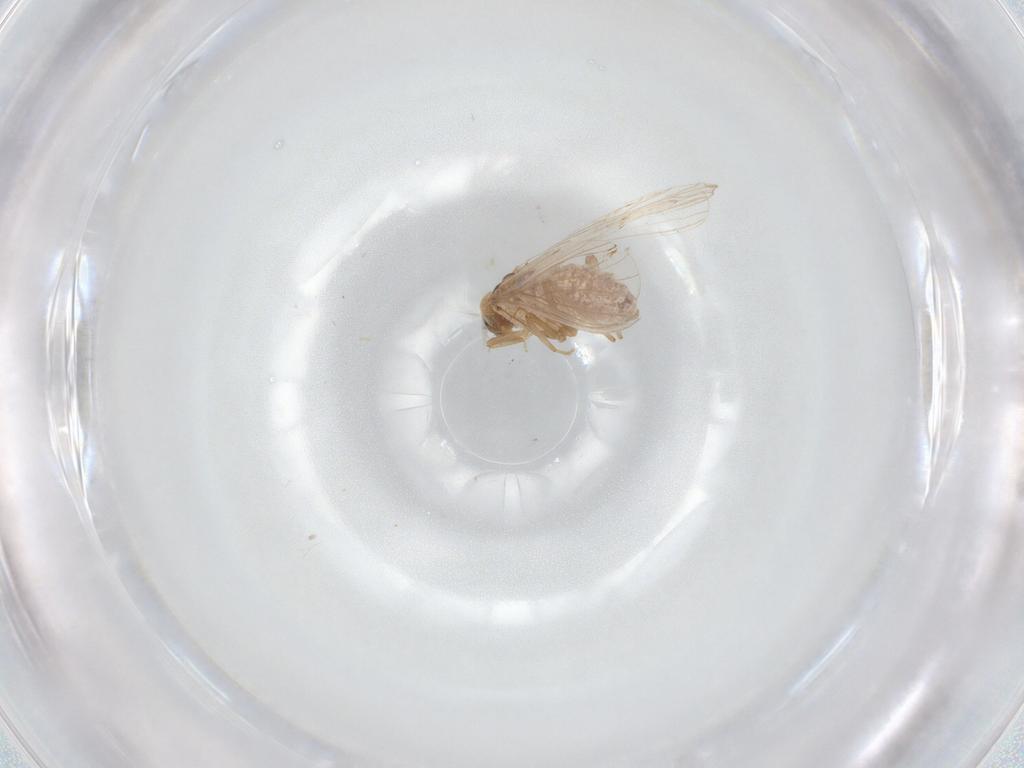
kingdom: Animalia
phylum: Arthropoda
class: Insecta
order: Neuroptera
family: Coniopterygidae
